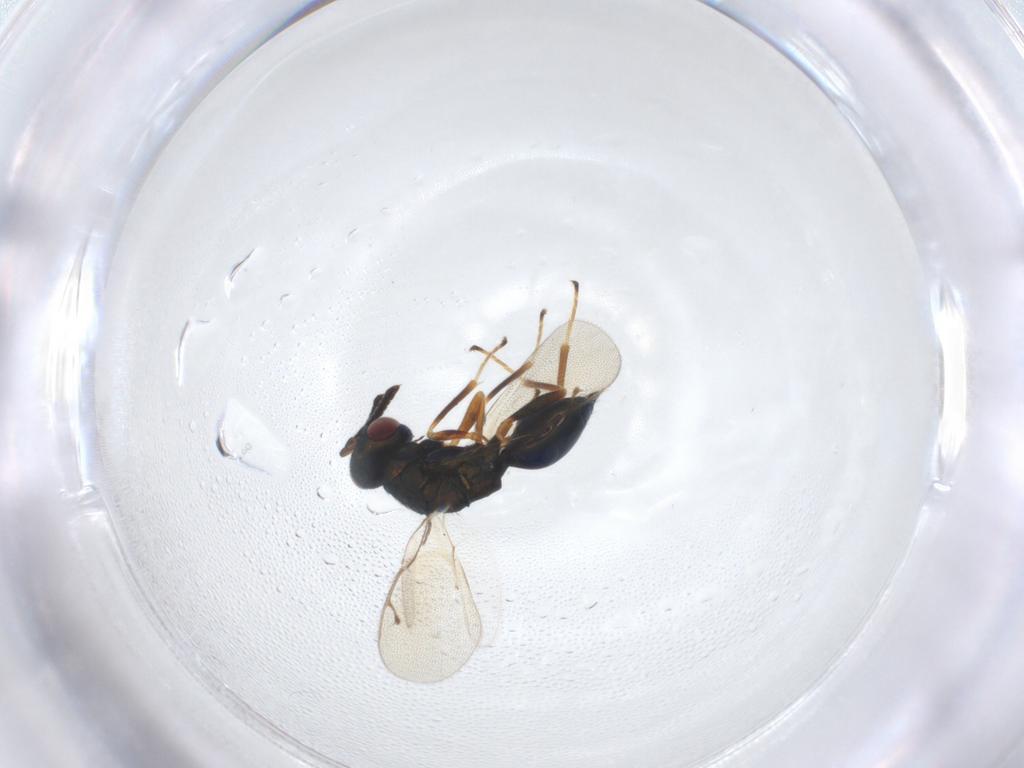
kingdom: Animalia
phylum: Arthropoda
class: Insecta
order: Hymenoptera
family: Pteromalidae
